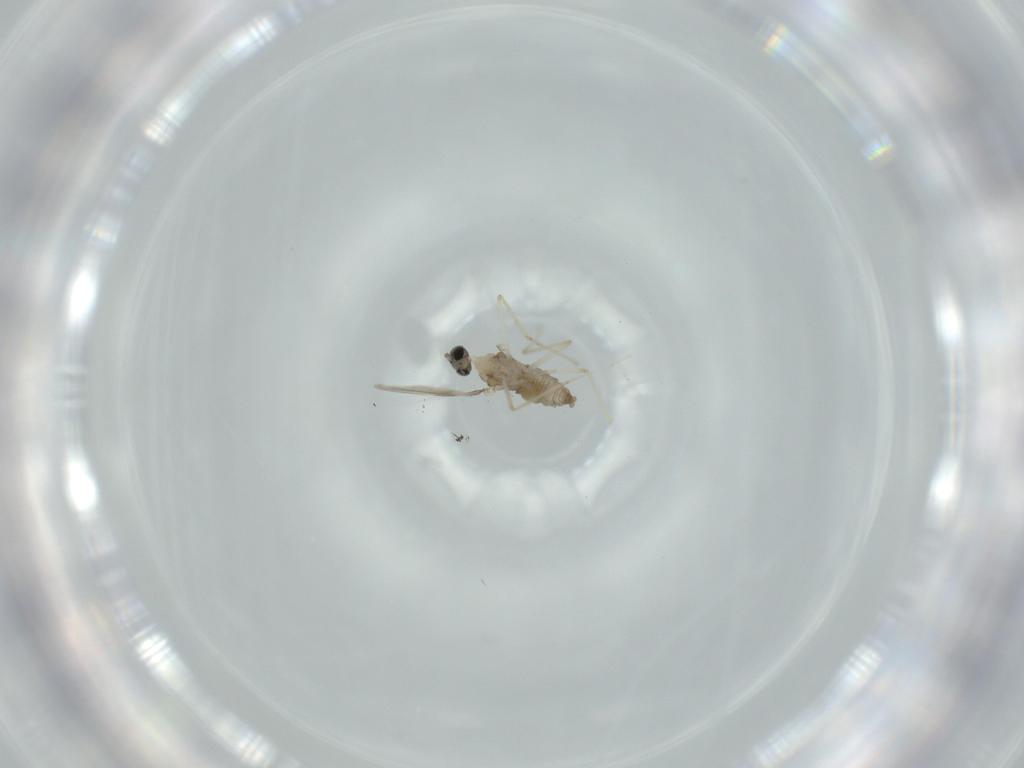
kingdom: Animalia
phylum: Arthropoda
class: Insecta
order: Diptera
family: Cecidomyiidae
